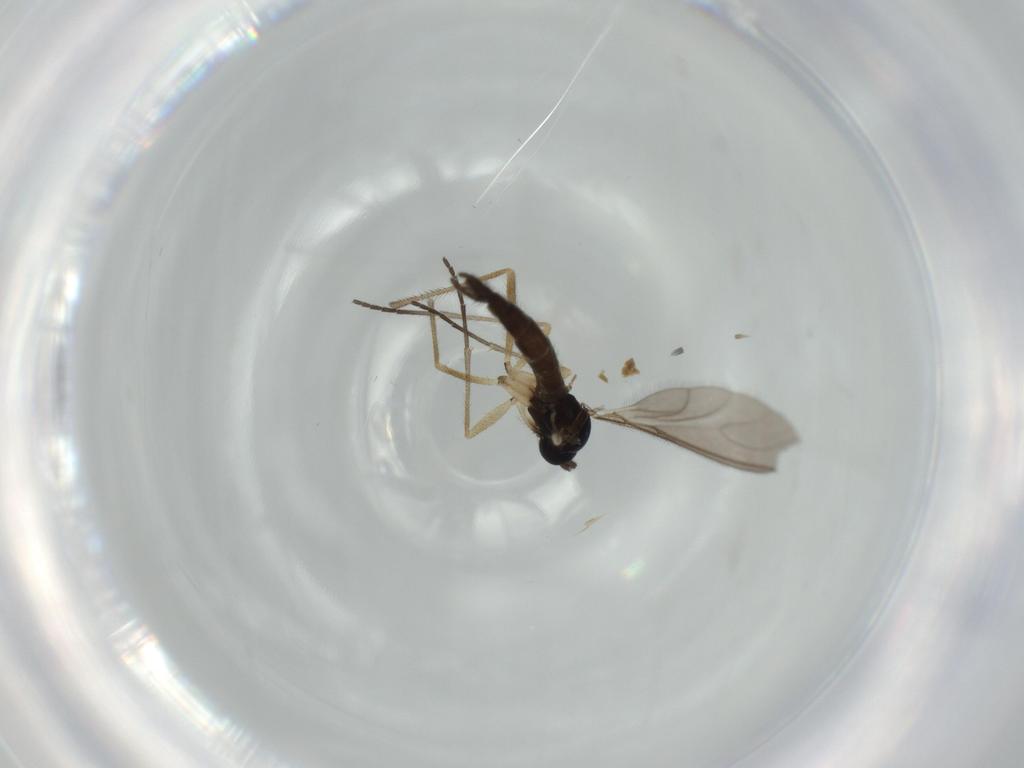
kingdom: Animalia
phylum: Arthropoda
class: Insecta
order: Diptera
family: Sciaridae
